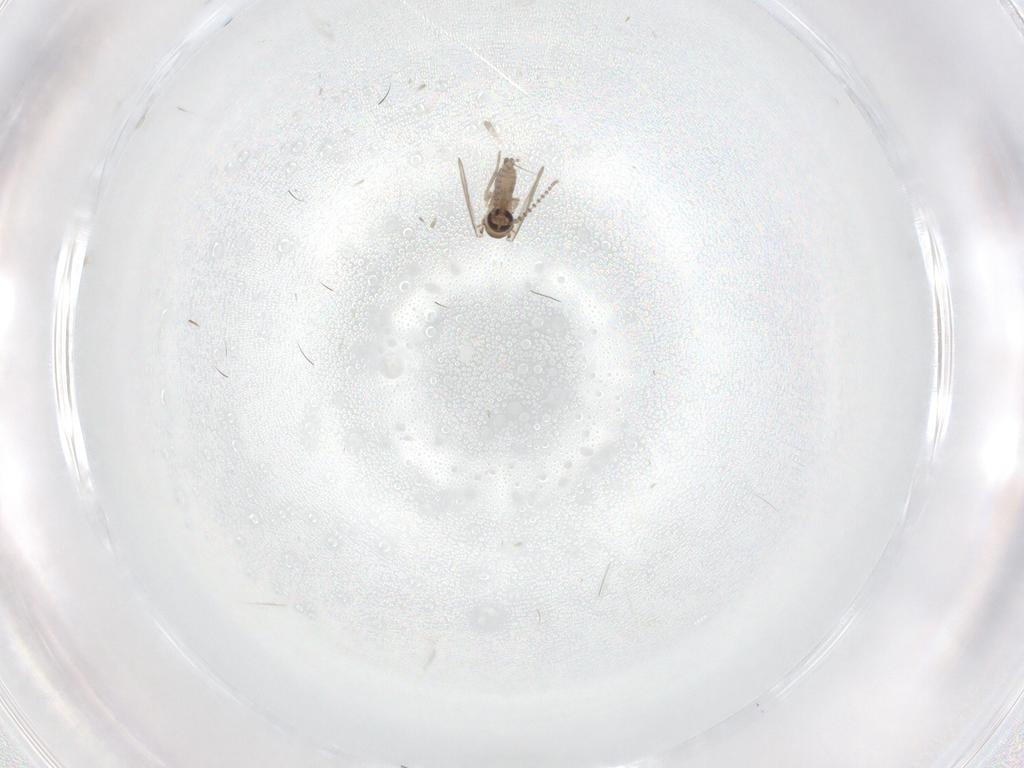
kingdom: Animalia
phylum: Arthropoda
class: Insecta
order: Diptera
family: Psychodidae
